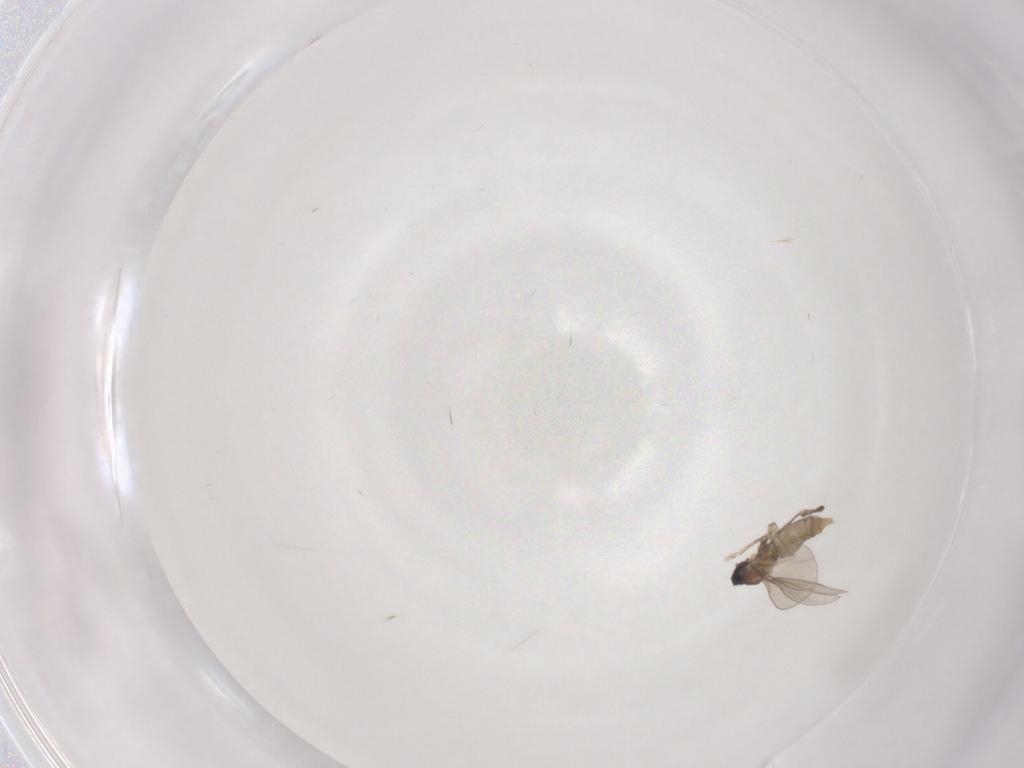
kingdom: Animalia
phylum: Arthropoda
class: Insecta
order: Diptera
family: Cecidomyiidae
